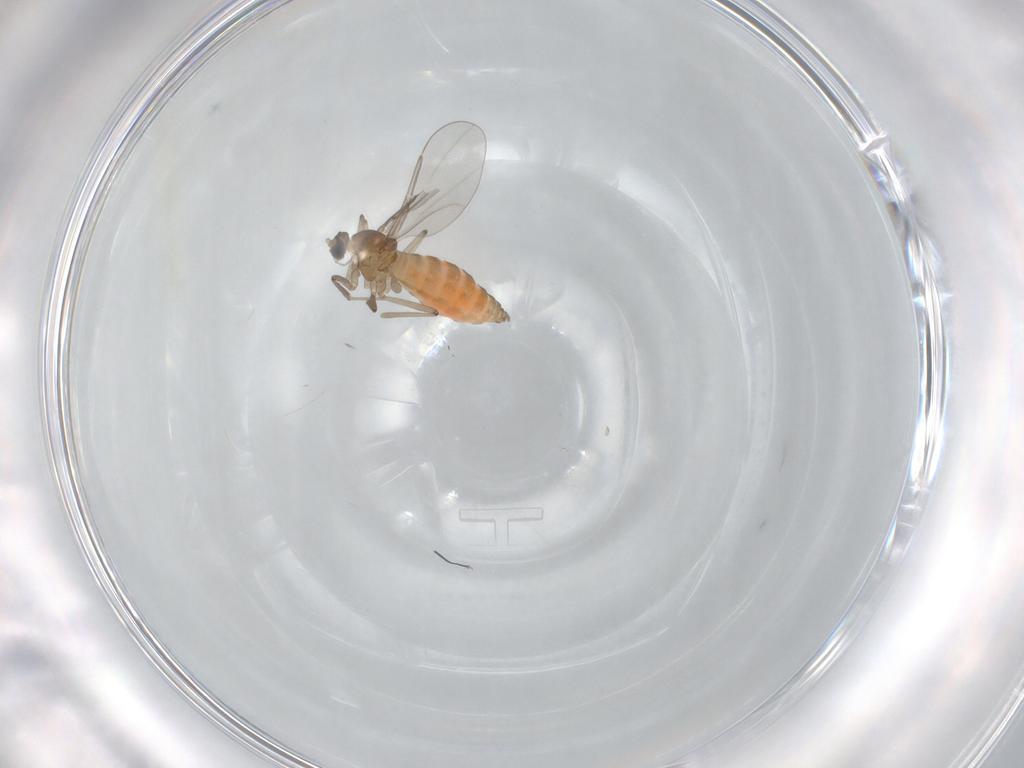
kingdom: Animalia
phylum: Arthropoda
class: Insecta
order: Diptera
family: Cecidomyiidae
